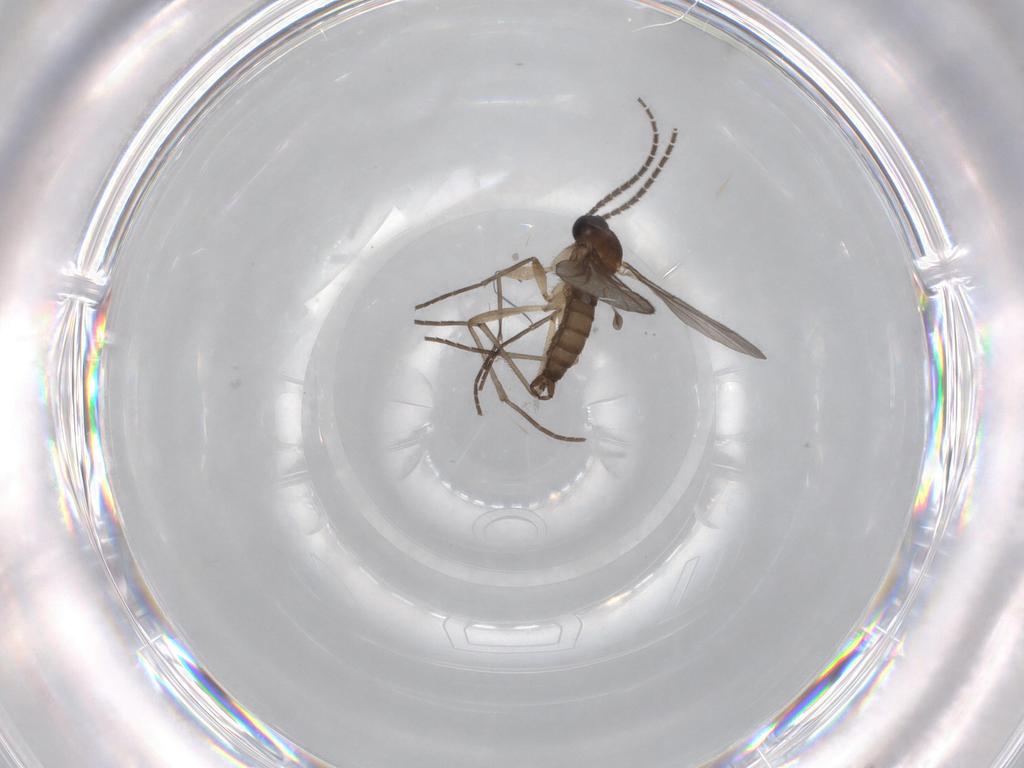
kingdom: Animalia
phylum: Arthropoda
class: Insecta
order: Diptera
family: Sciaridae
